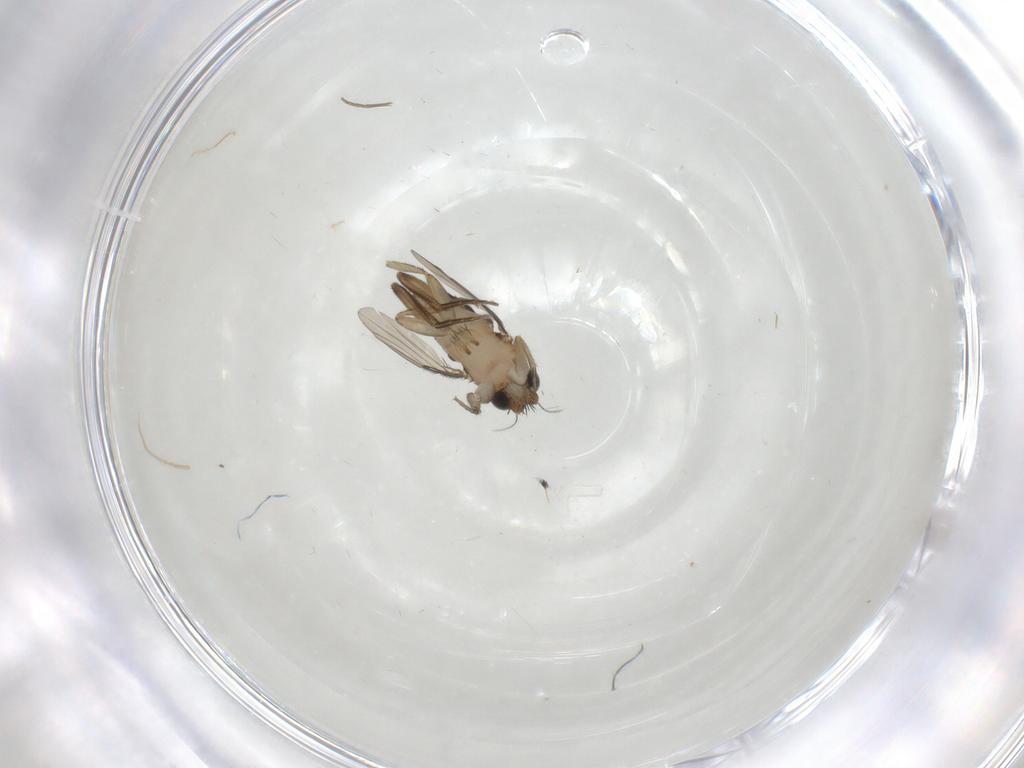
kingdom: Animalia
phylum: Arthropoda
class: Insecta
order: Diptera
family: Phoridae
